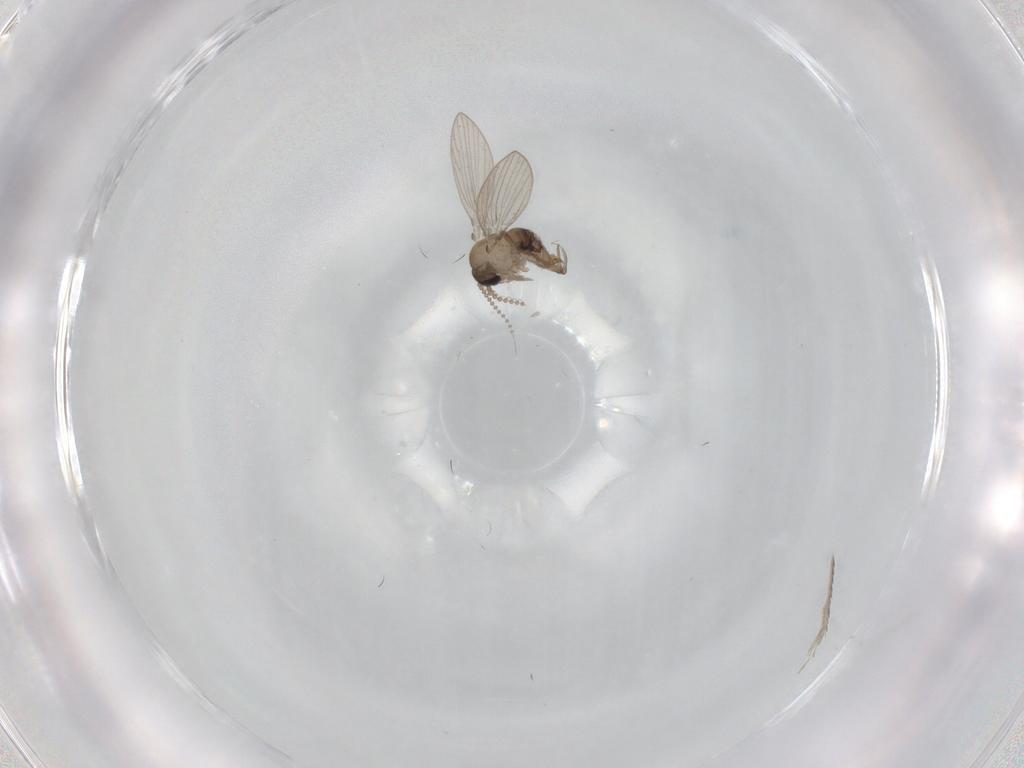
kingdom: Animalia
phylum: Arthropoda
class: Insecta
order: Diptera
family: Psychodidae
